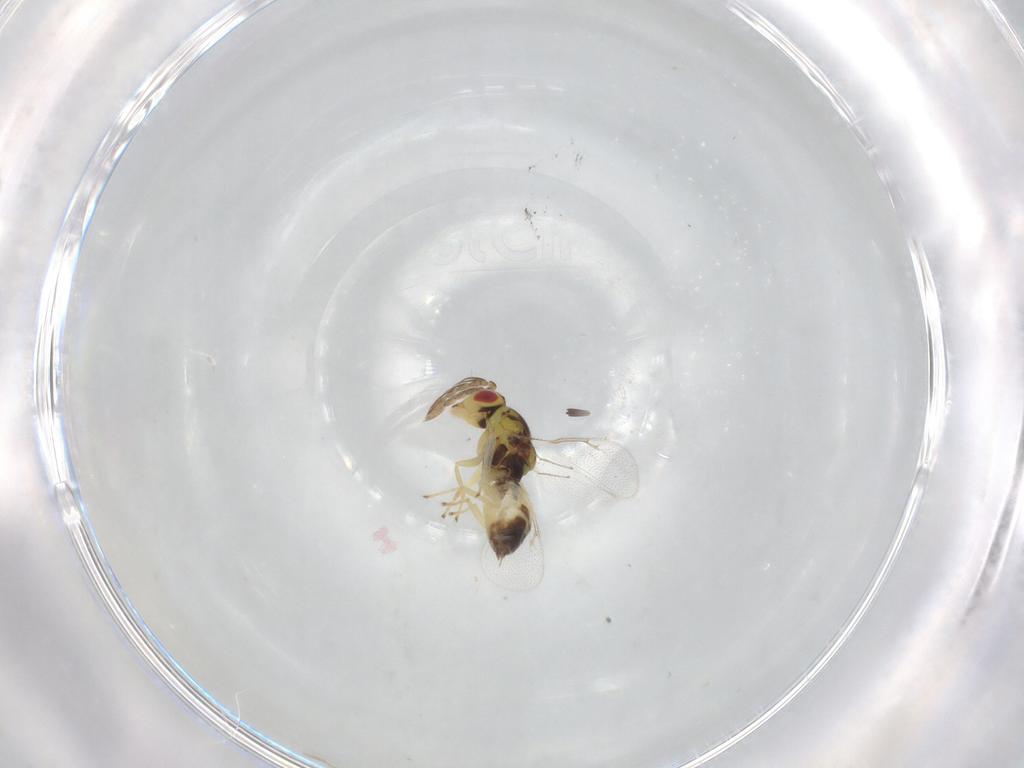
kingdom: Animalia
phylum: Arthropoda
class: Insecta
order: Hymenoptera
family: Eulophidae
